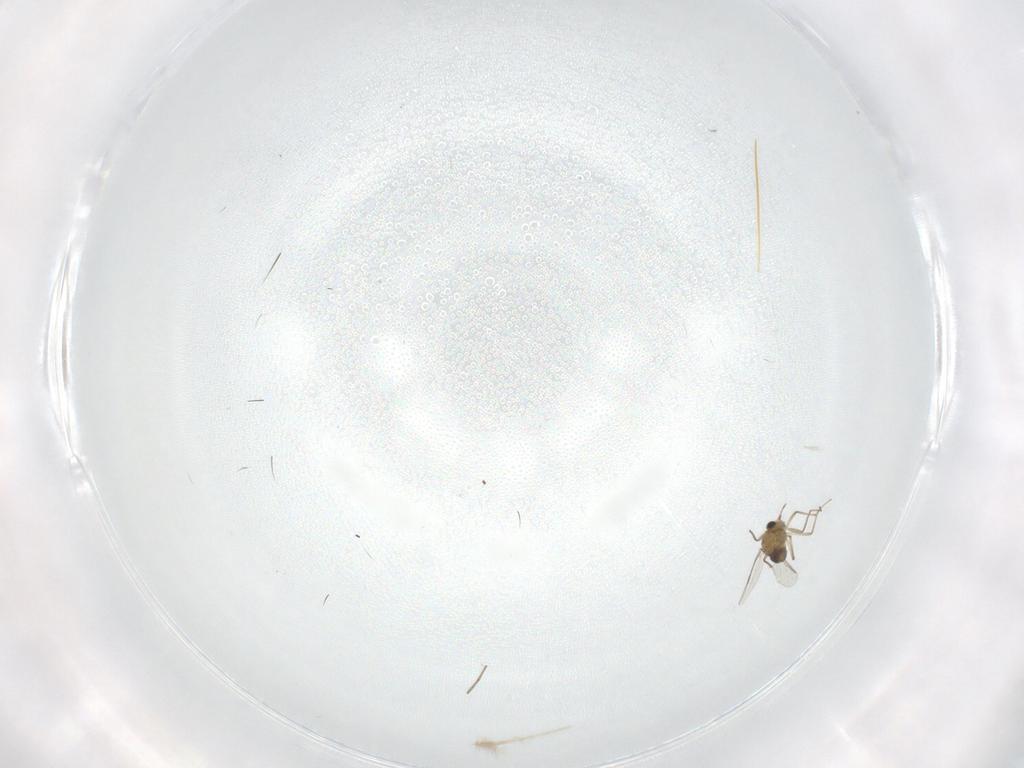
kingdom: Animalia
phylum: Arthropoda
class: Insecta
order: Diptera
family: Chironomidae
